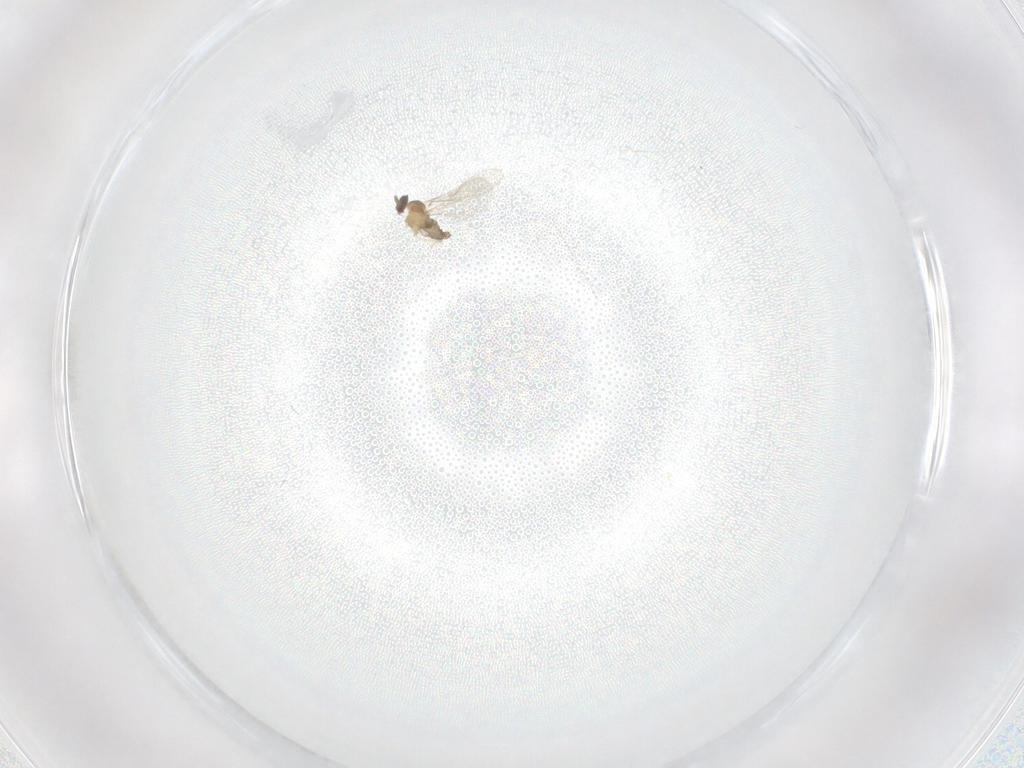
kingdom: Animalia
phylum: Arthropoda
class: Insecta
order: Diptera
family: Cecidomyiidae
